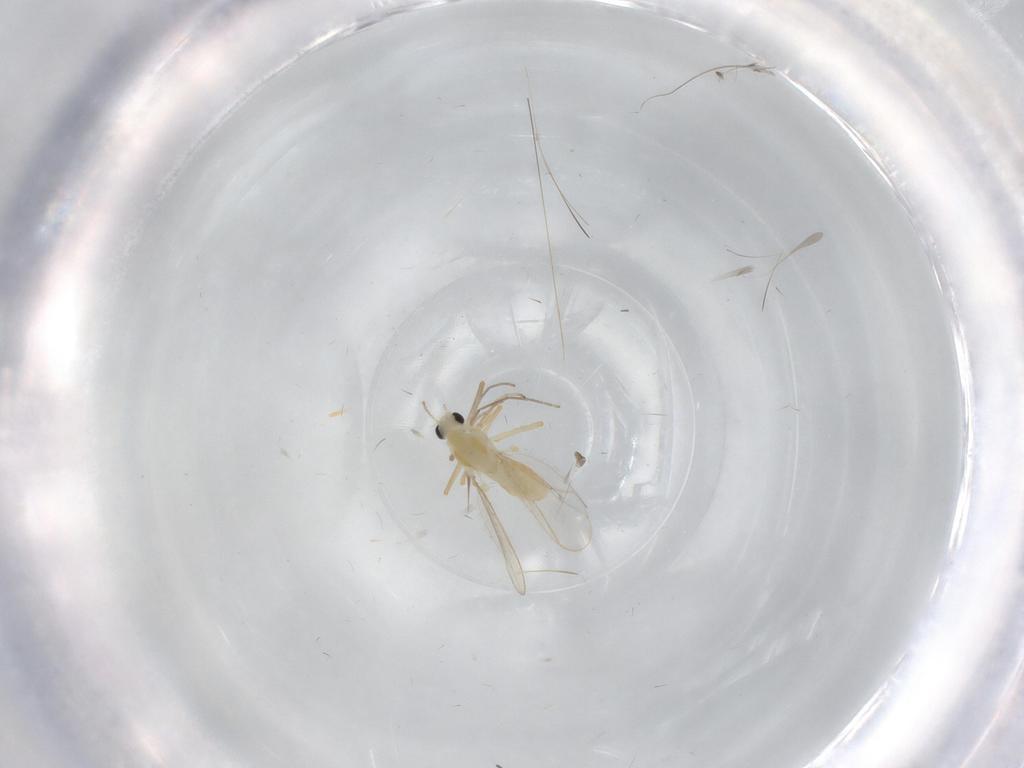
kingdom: Animalia
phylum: Arthropoda
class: Insecta
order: Diptera
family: Chironomidae
